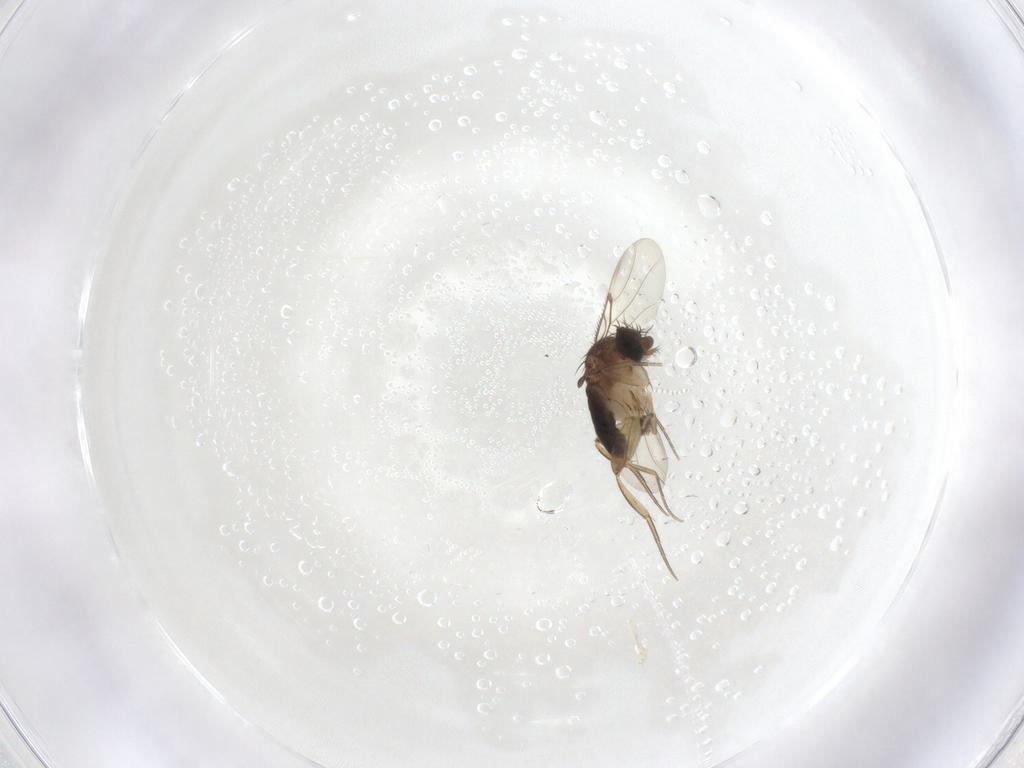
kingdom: Animalia
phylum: Arthropoda
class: Insecta
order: Diptera
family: Phoridae
